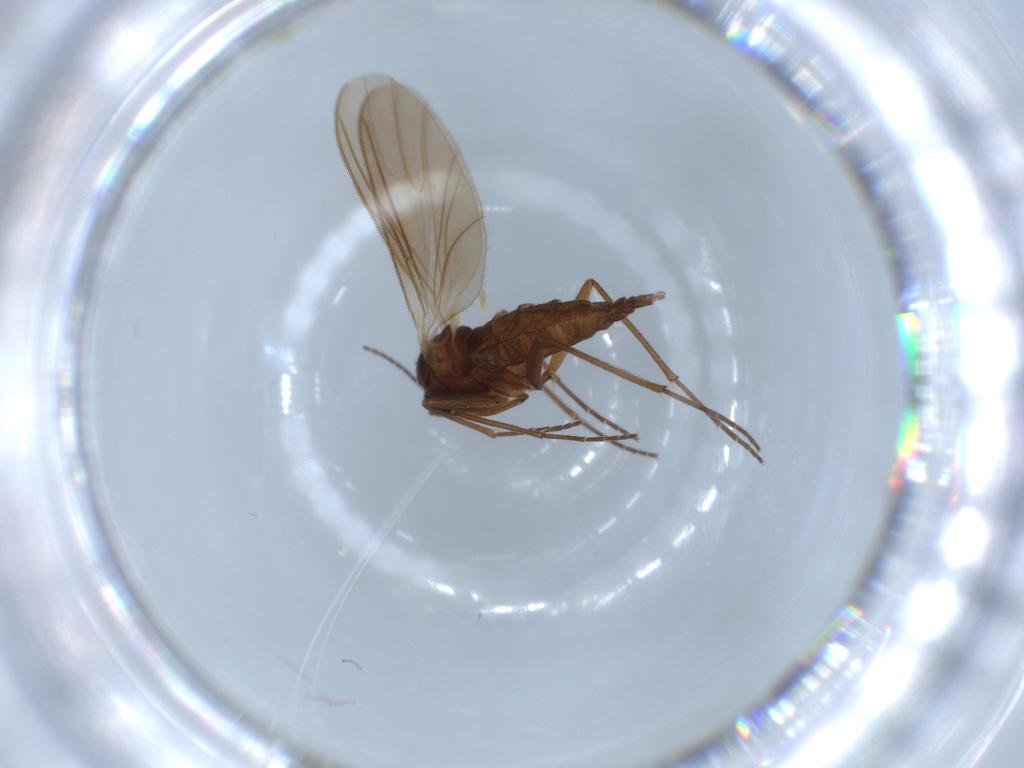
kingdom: Animalia
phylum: Arthropoda
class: Insecta
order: Diptera
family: Sciaridae
